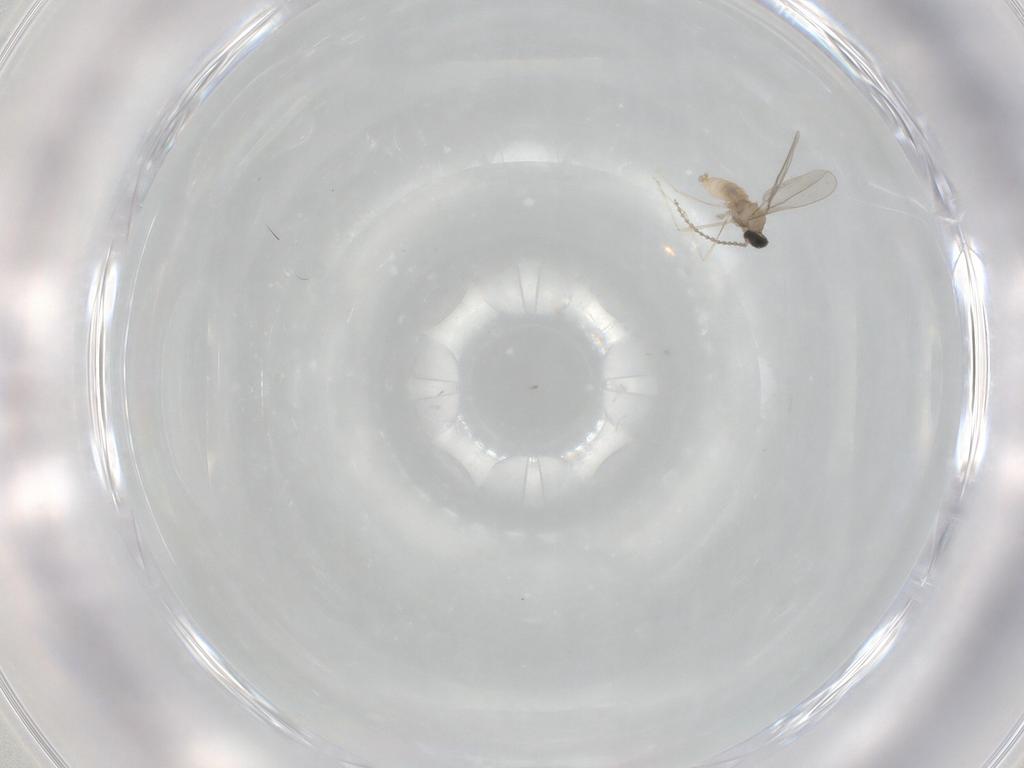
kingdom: Animalia
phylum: Arthropoda
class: Insecta
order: Diptera
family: Cecidomyiidae
